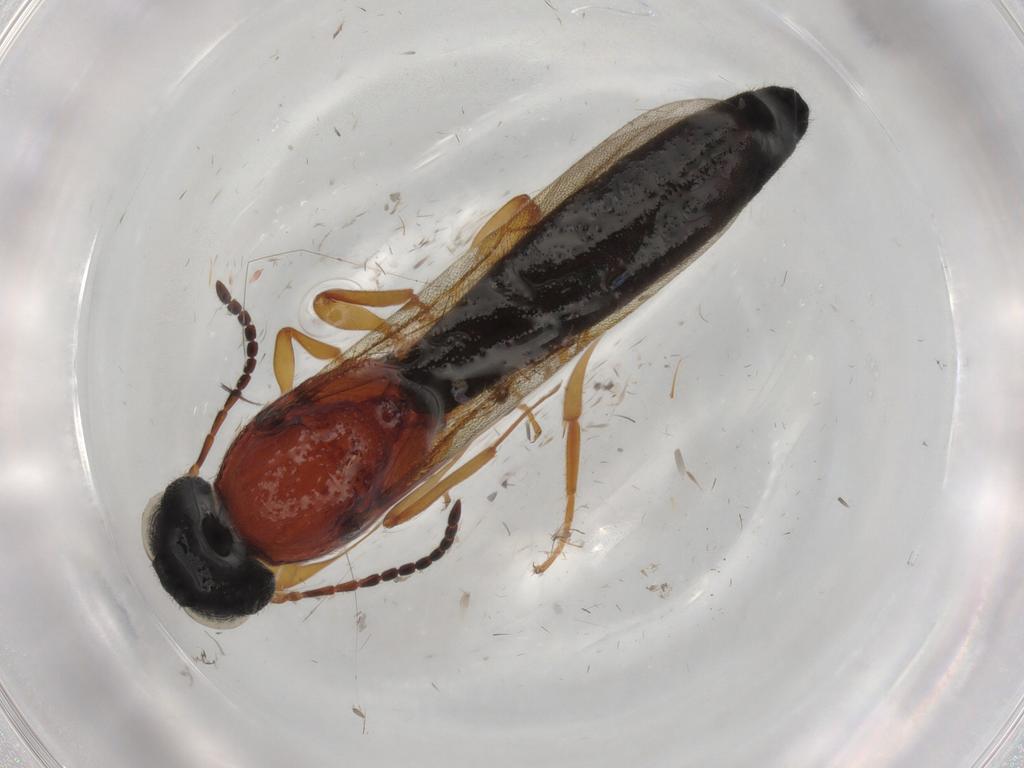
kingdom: Animalia
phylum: Arthropoda
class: Insecta
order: Hymenoptera
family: Scelionidae
